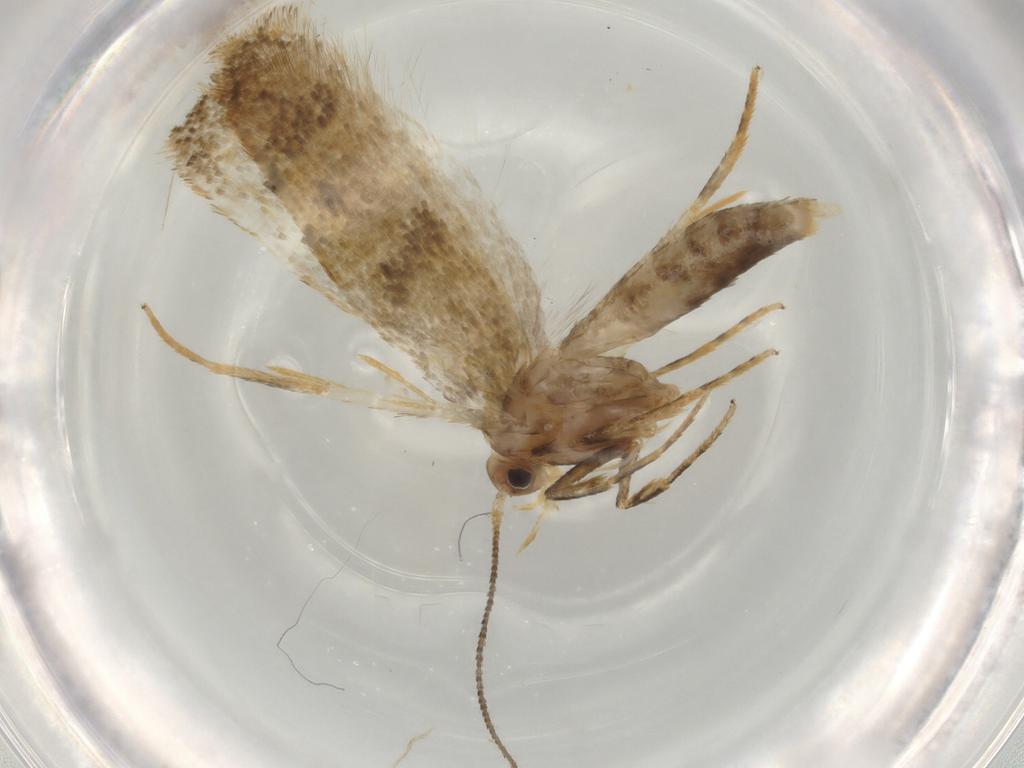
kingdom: Animalia
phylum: Arthropoda
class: Insecta
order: Lepidoptera
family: Oecophoridae
